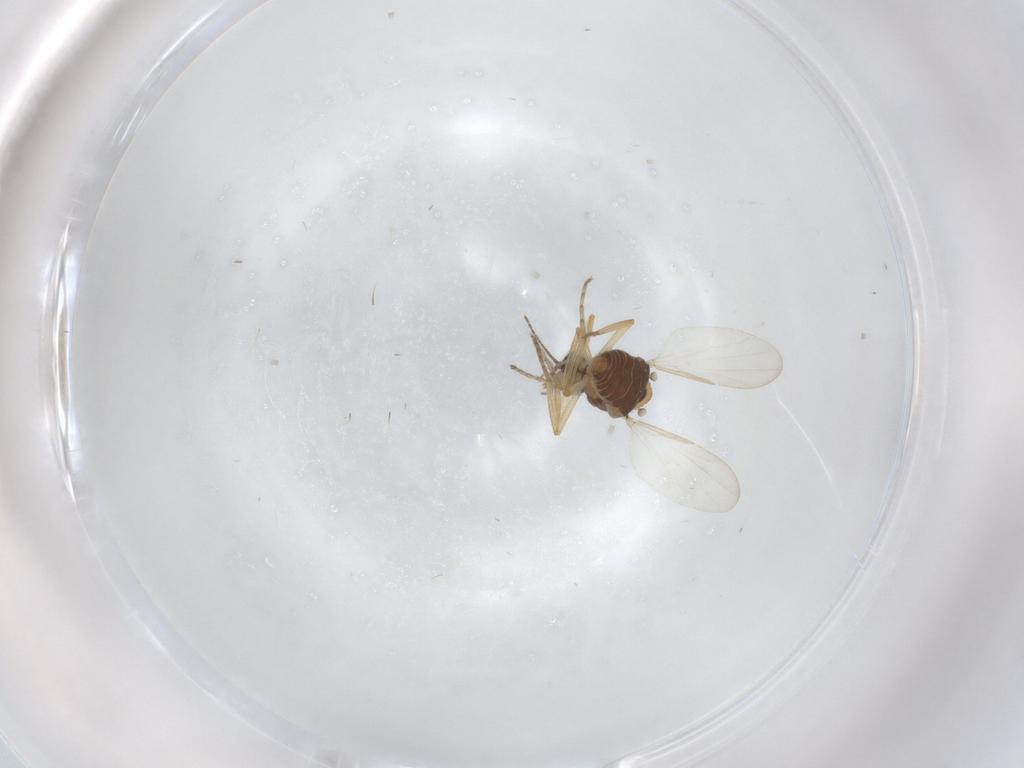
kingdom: Animalia
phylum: Arthropoda
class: Insecta
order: Diptera
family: Ceratopogonidae
